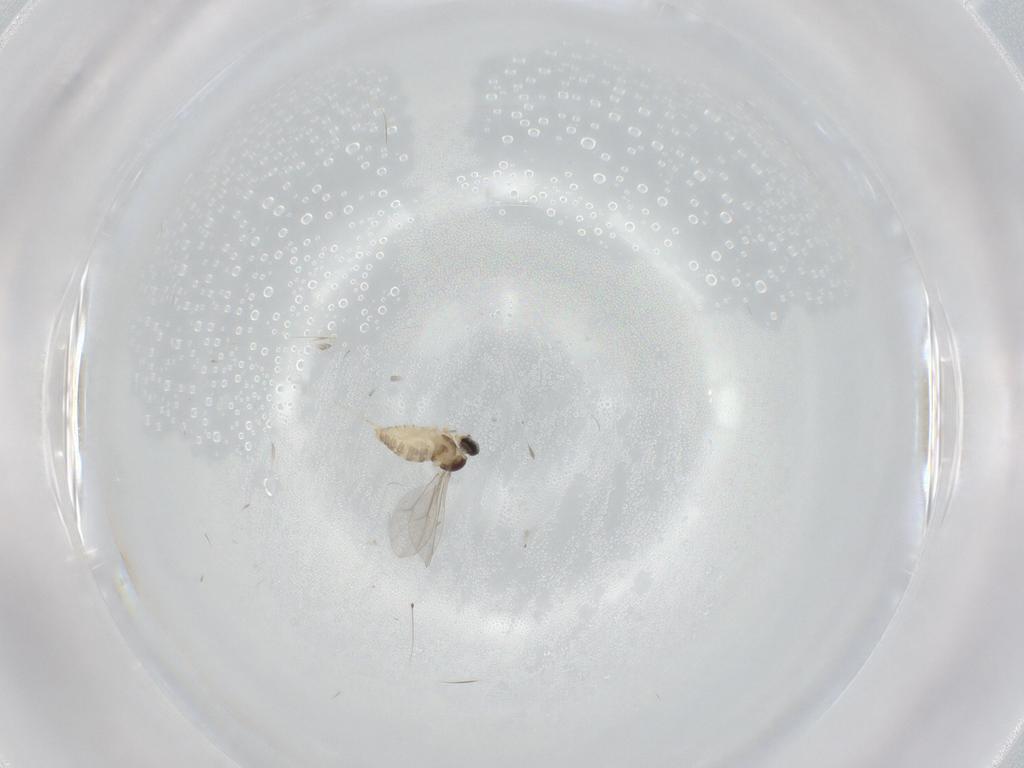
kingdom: Animalia
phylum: Arthropoda
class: Insecta
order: Diptera
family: Cecidomyiidae
